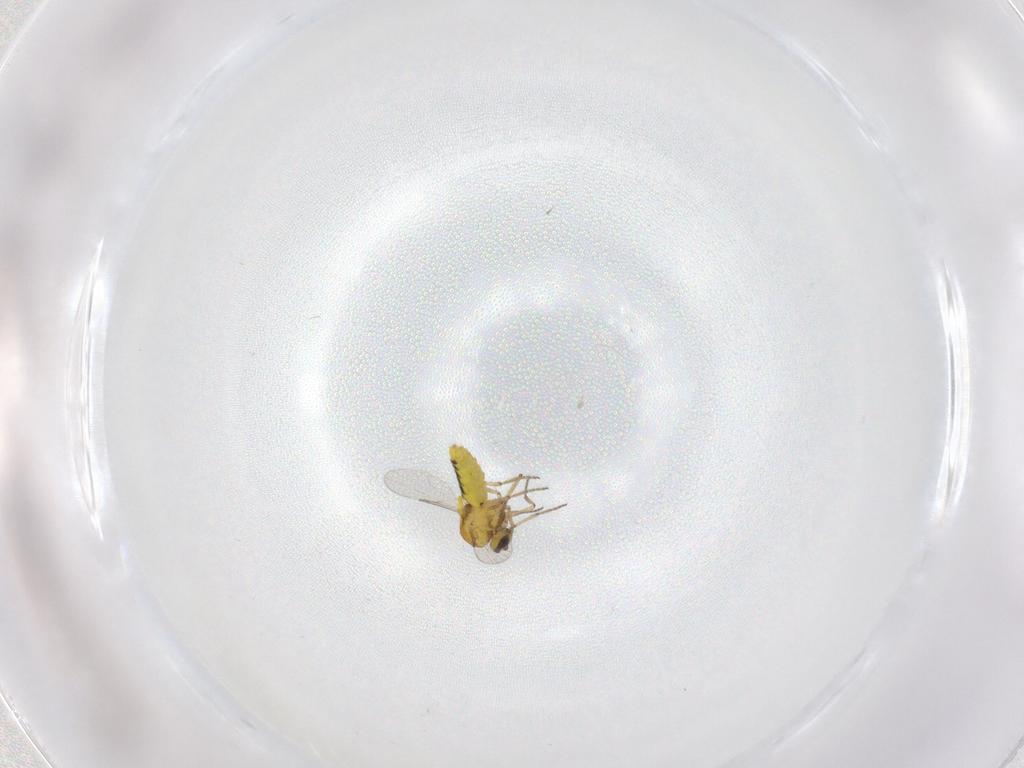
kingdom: Animalia
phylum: Arthropoda
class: Insecta
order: Diptera
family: Ceratopogonidae
